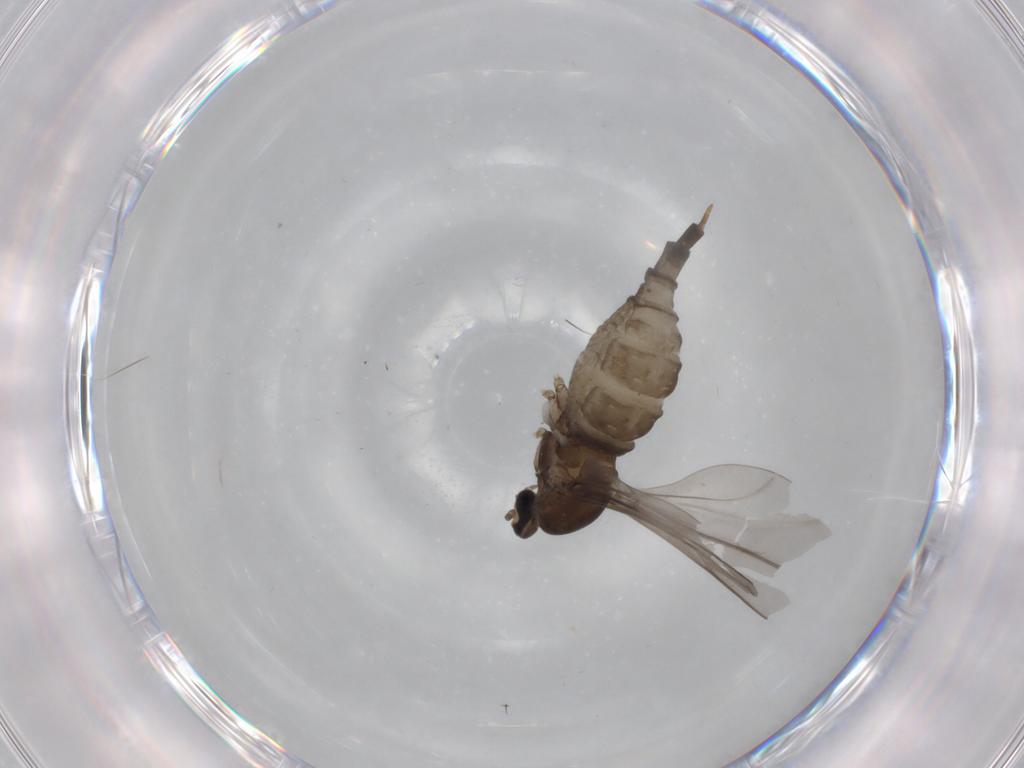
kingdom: Animalia
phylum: Arthropoda
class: Insecta
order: Diptera
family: Cecidomyiidae
